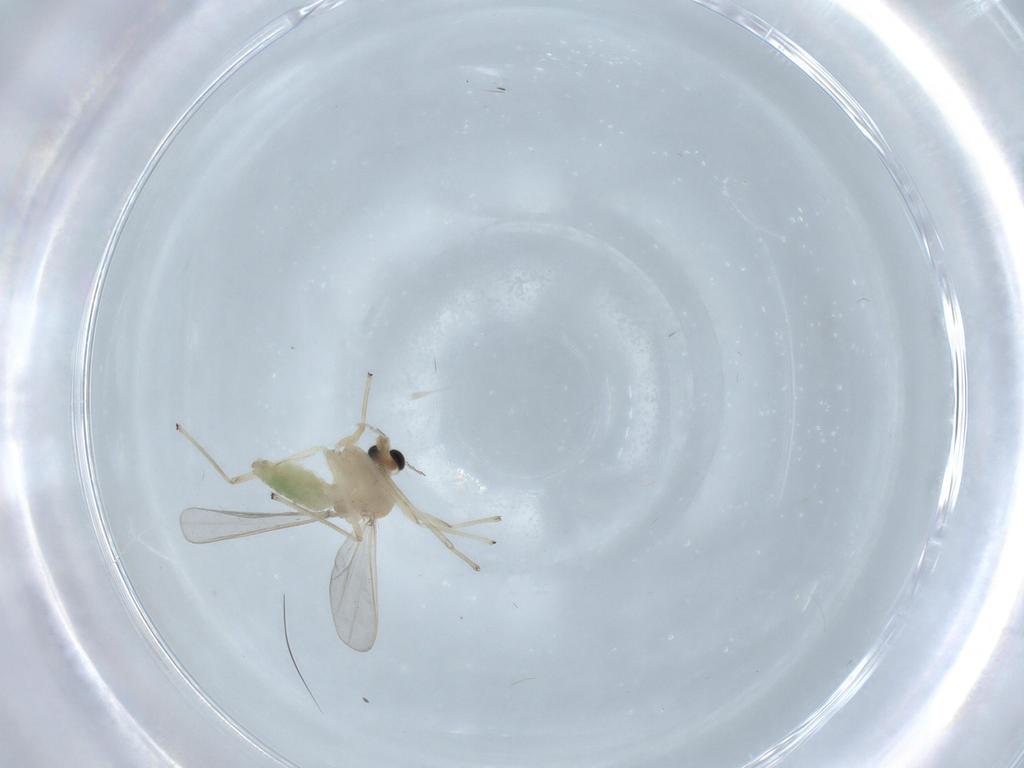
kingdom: Animalia
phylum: Arthropoda
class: Insecta
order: Diptera
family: Chironomidae
